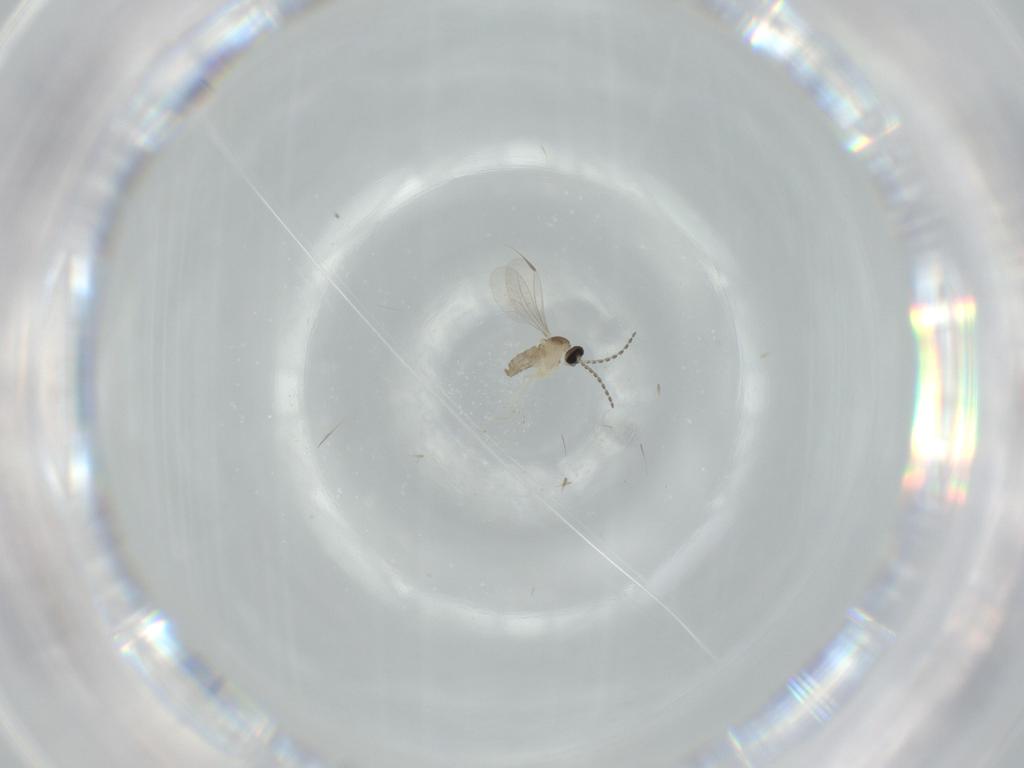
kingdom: Animalia
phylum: Arthropoda
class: Insecta
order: Diptera
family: Cecidomyiidae
